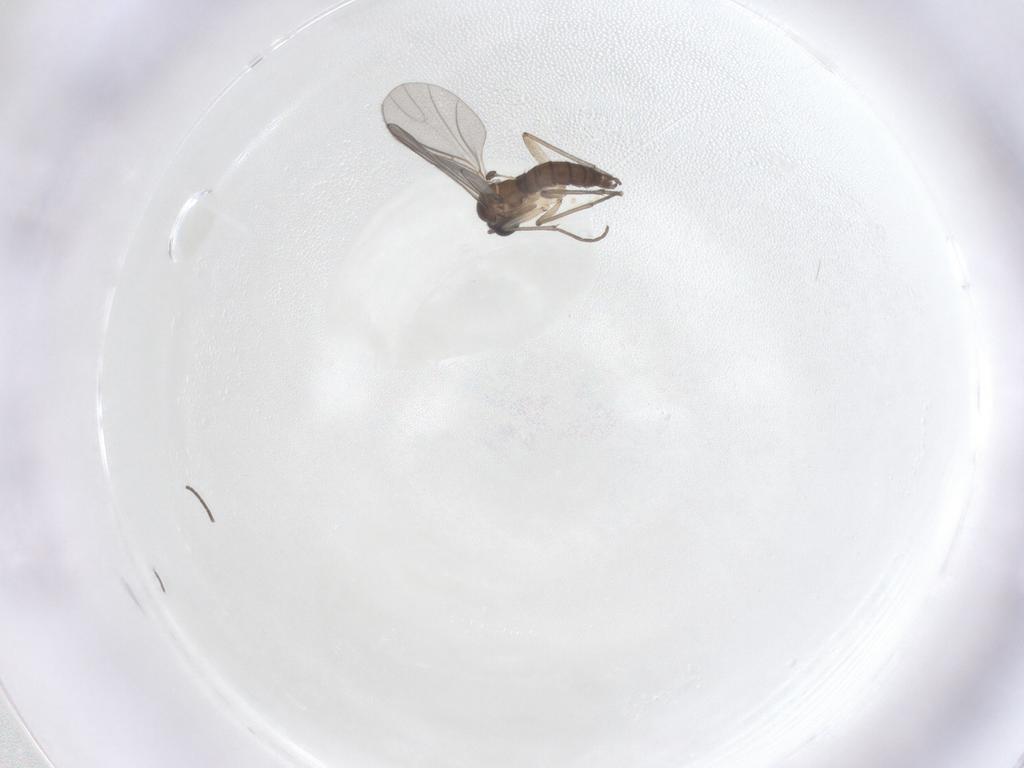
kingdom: Animalia
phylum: Arthropoda
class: Insecta
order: Diptera
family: Sciaridae
